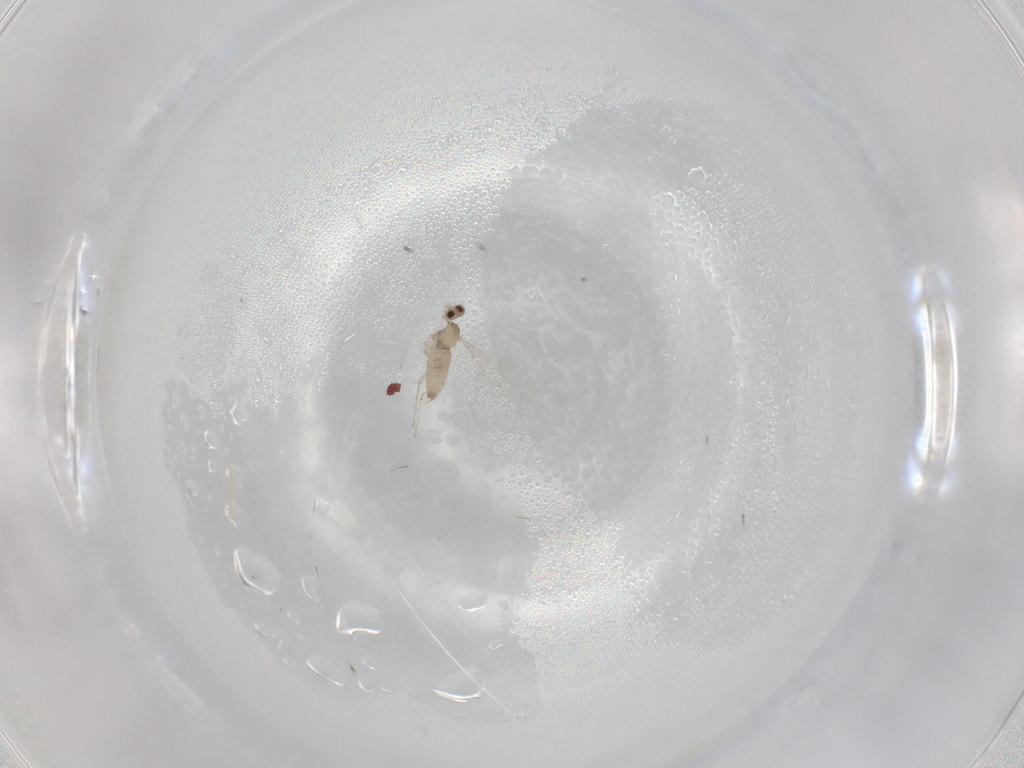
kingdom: Animalia
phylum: Arthropoda
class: Insecta
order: Diptera
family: Cecidomyiidae
